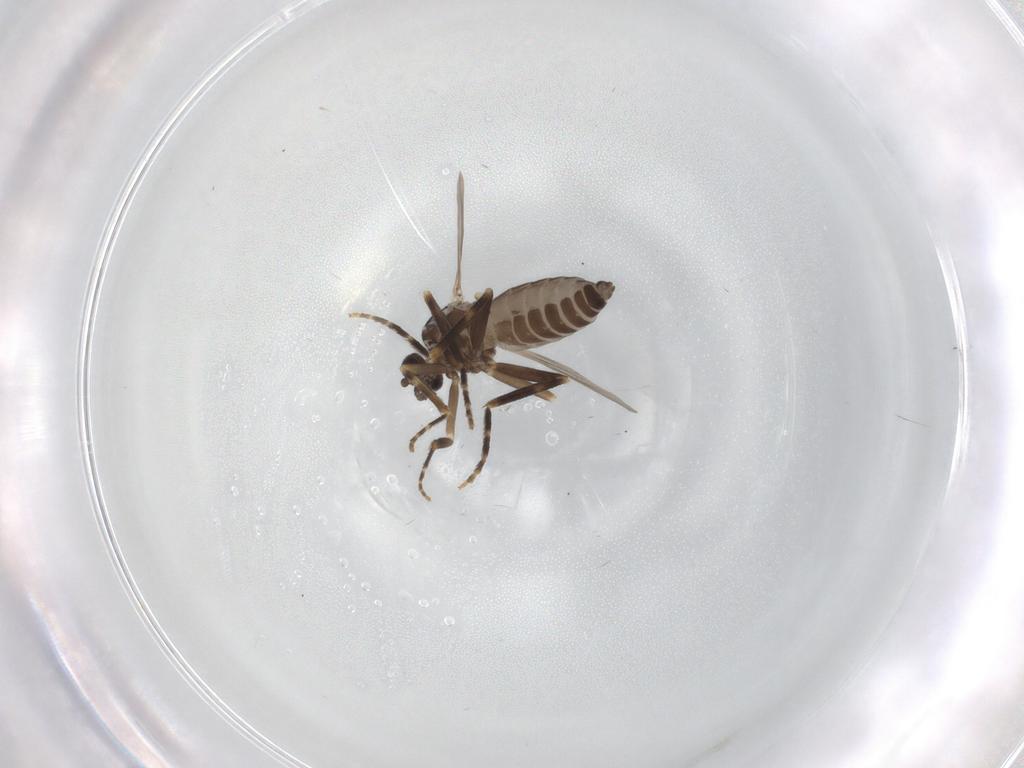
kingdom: Animalia
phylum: Arthropoda
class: Insecta
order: Diptera
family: Ceratopogonidae
